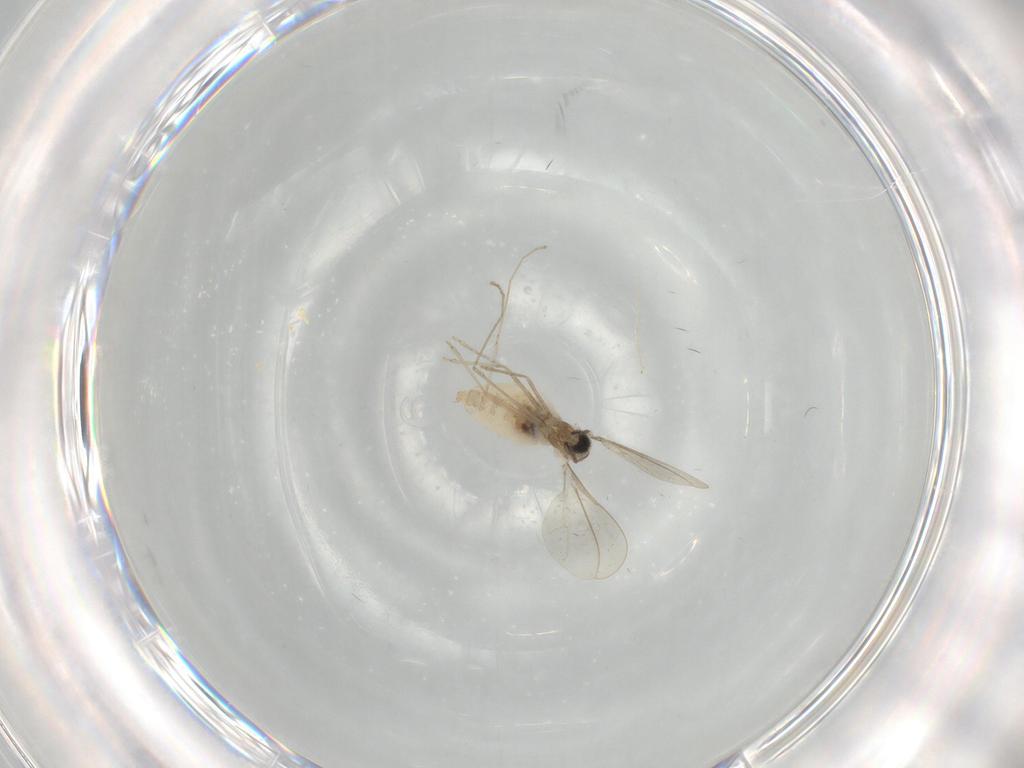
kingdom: Animalia
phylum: Arthropoda
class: Insecta
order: Diptera
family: Cecidomyiidae
